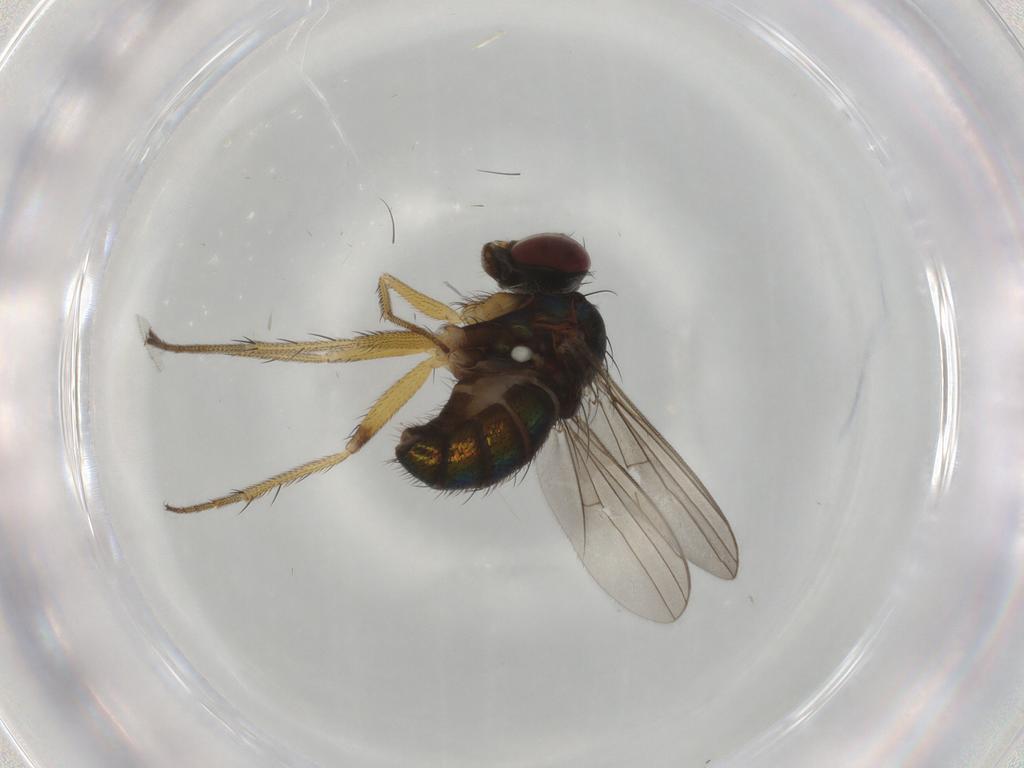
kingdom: Animalia
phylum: Arthropoda
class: Insecta
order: Diptera
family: Dolichopodidae
